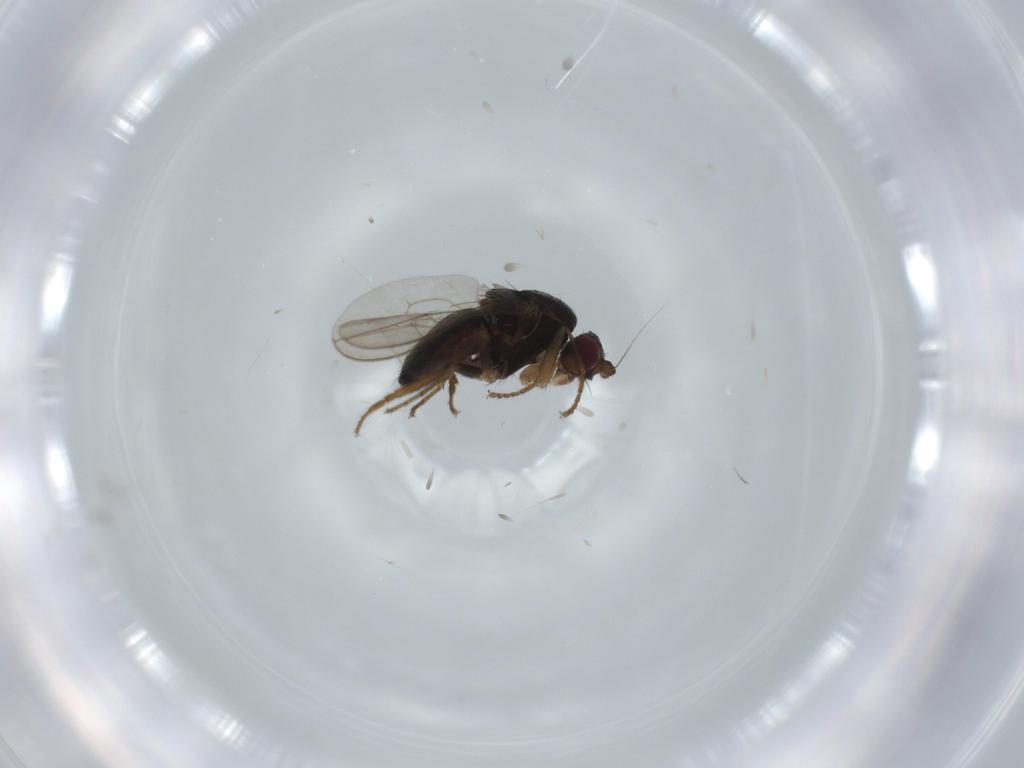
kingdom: Animalia
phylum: Arthropoda
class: Insecta
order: Diptera
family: Sphaeroceridae
